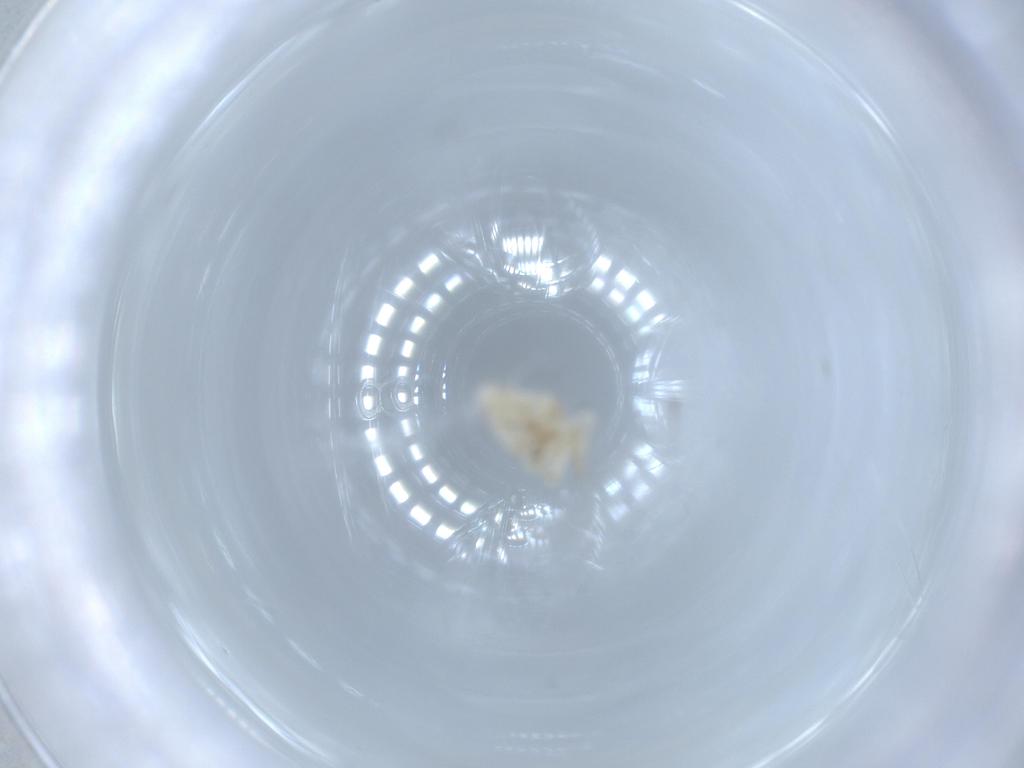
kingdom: Animalia
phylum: Arthropoda
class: Insecta
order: Hemiptera
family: Flatidae
